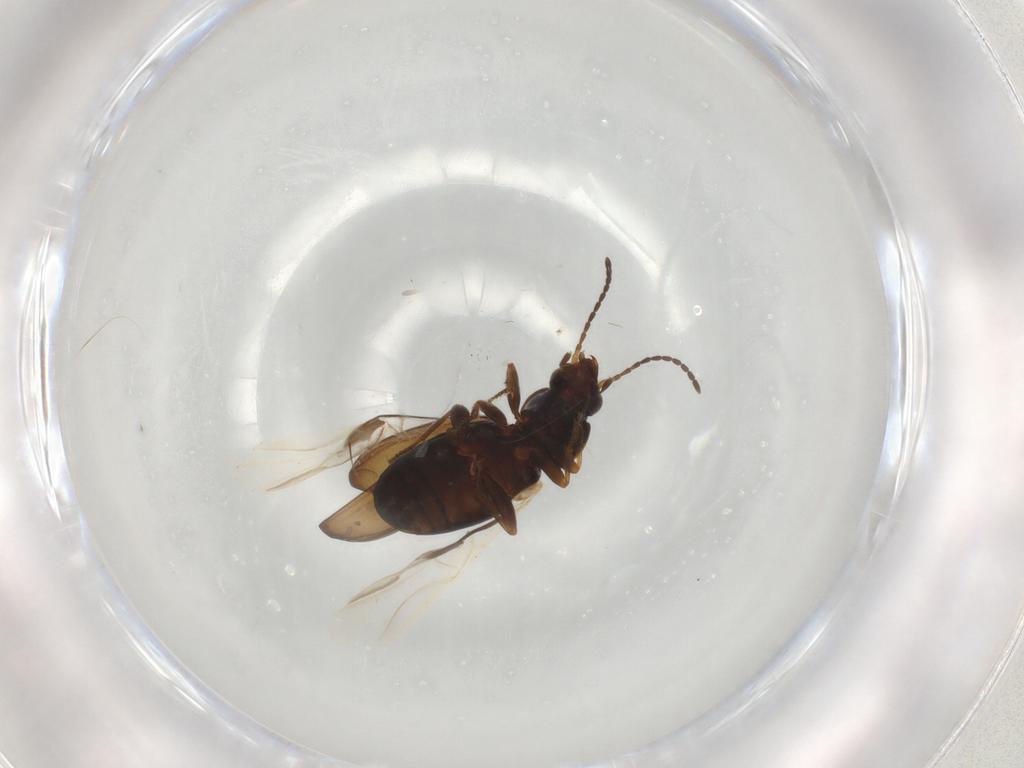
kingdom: Animalia
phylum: Arthropoda
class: Insecta
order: Coleoptera
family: Carabidae
